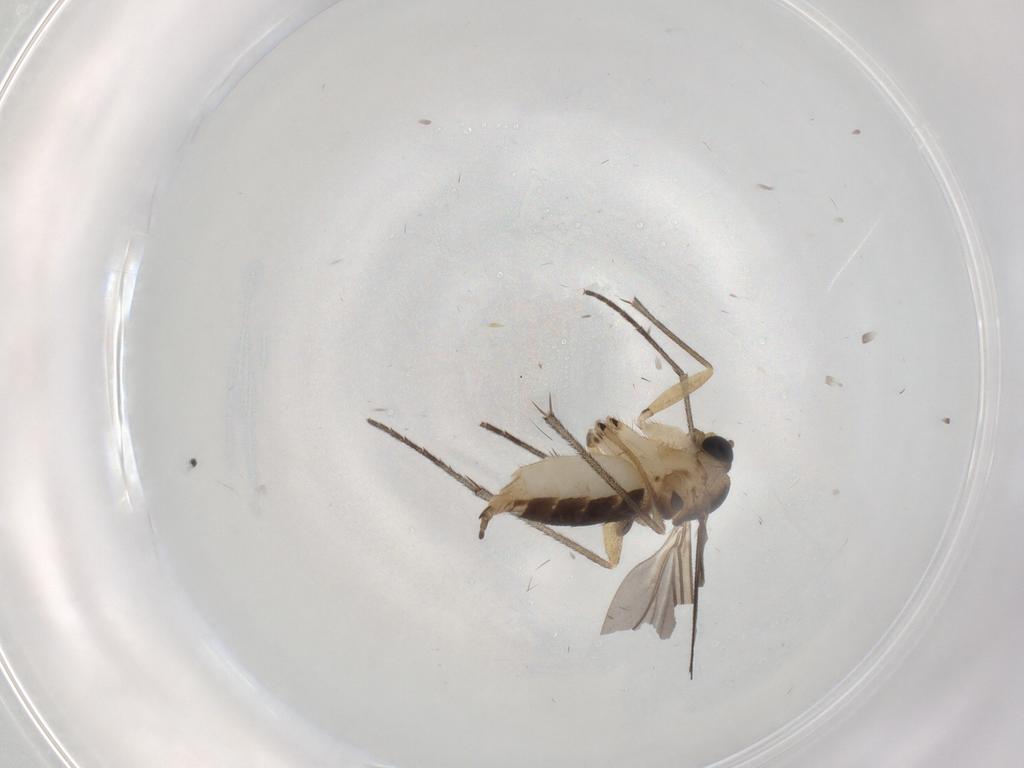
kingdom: Animalia
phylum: Arthropoda
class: Insecta
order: Diptera
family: Sciaridae
